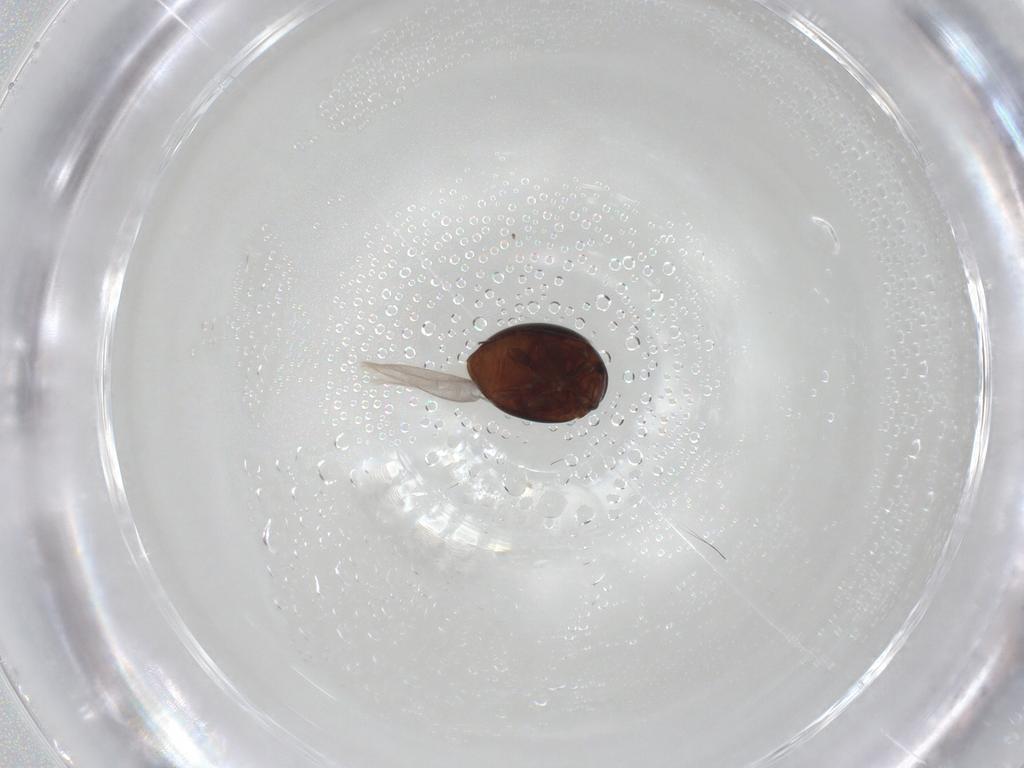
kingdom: Animalia
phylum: Arthropoda
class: Insecta
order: Coleoptera
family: Coccinellidae
